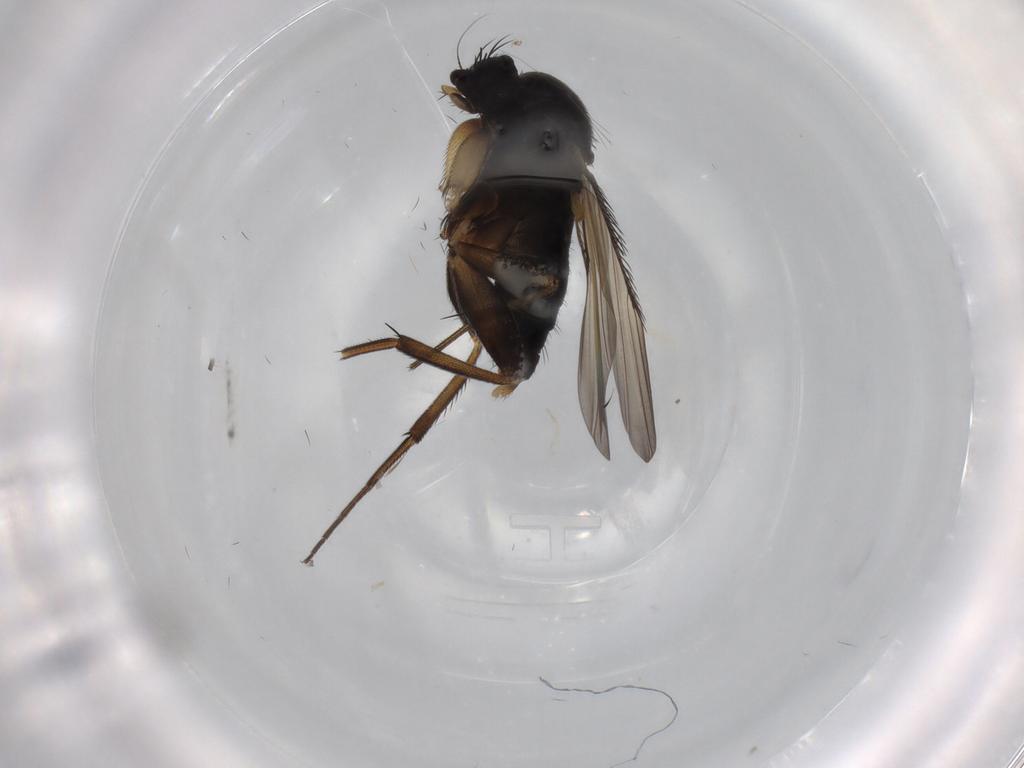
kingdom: Animalia
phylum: Arthropoda
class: Insecta
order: Diptera
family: Phoridae
